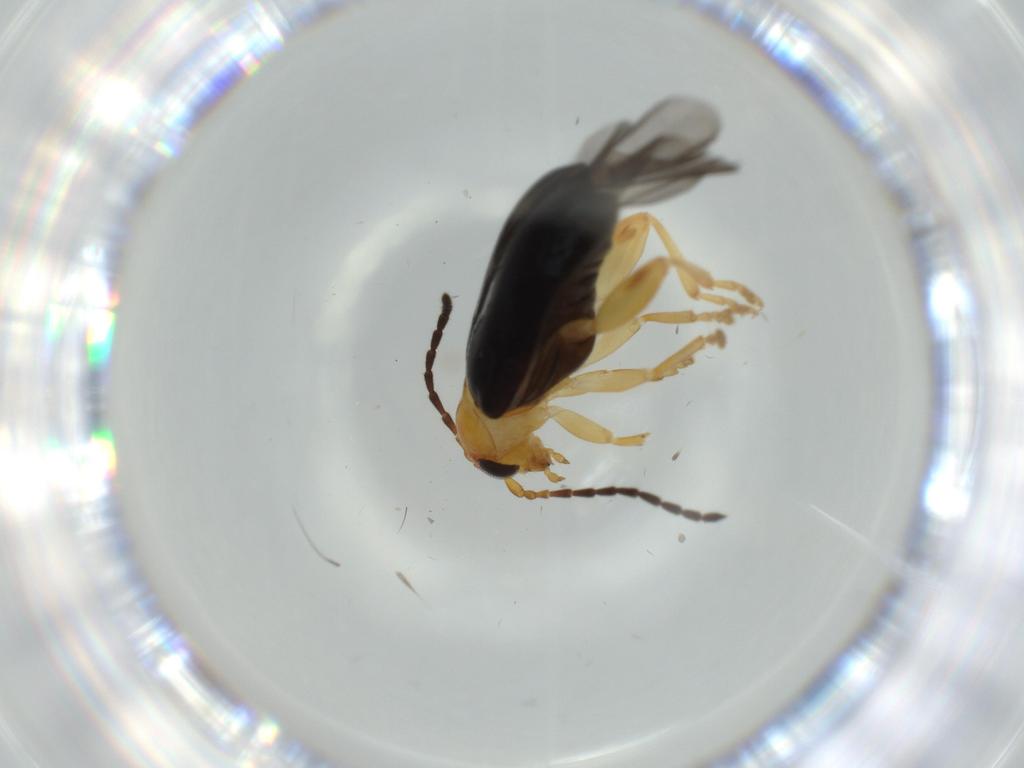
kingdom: Animalia
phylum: Arthropoda
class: Insecta
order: Coleoptera
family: Chrysomelidae
